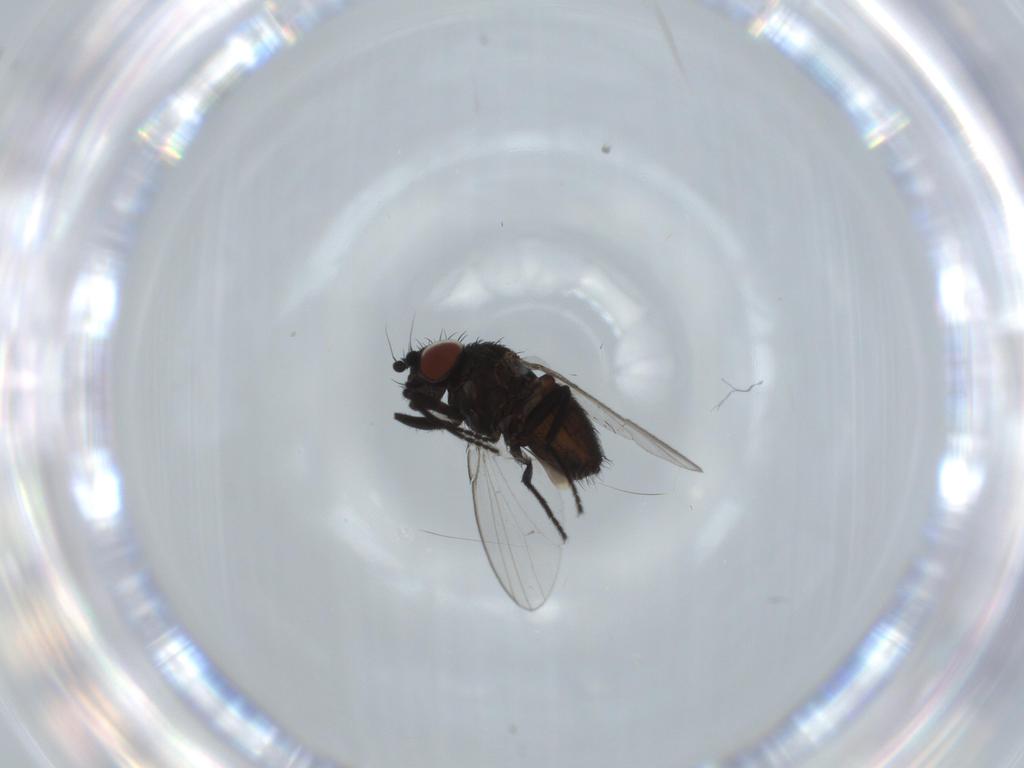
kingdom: Animalia
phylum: Arthropoda
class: Insecta
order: Diptera
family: Milichiidae
